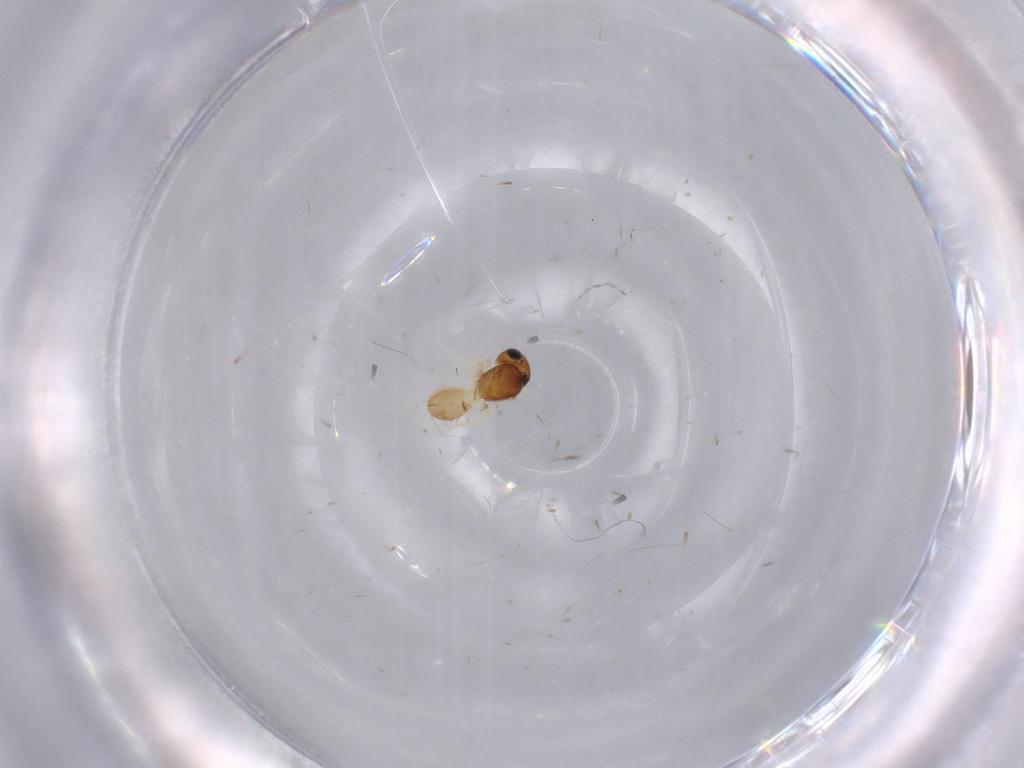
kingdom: Animalia
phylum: Arthropoda
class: Insecta
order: Hymenoptera
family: Diapriidae
